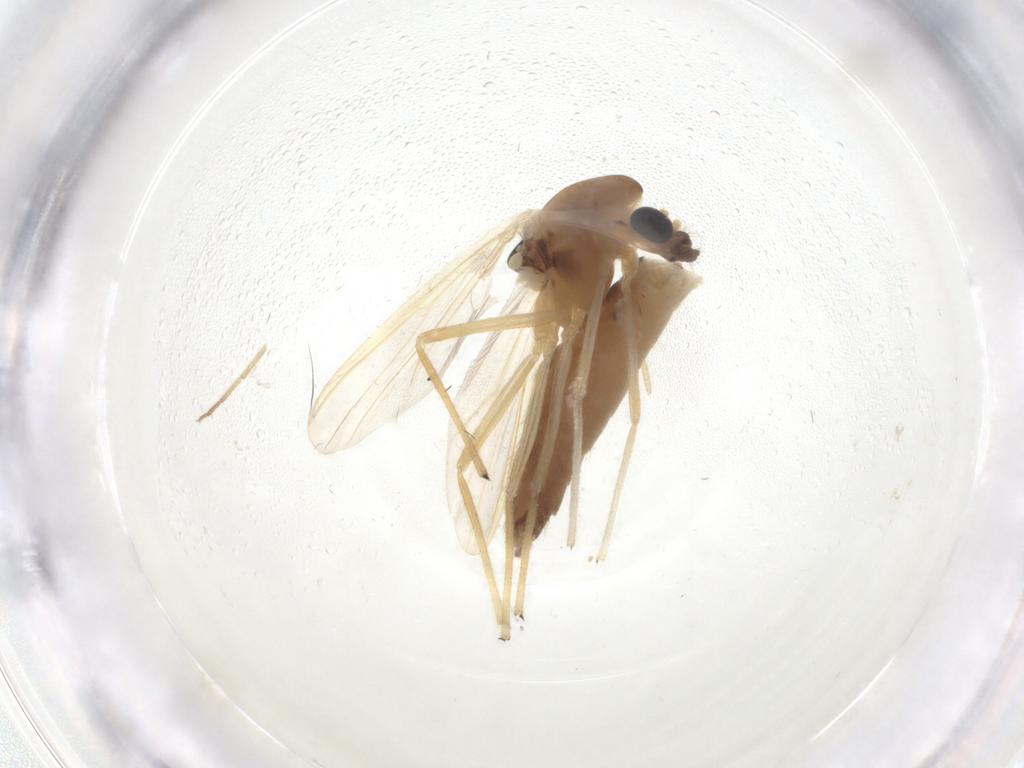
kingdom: Animalia
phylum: Arthropoda
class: Insecta
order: Diptera
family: Chironomidae
